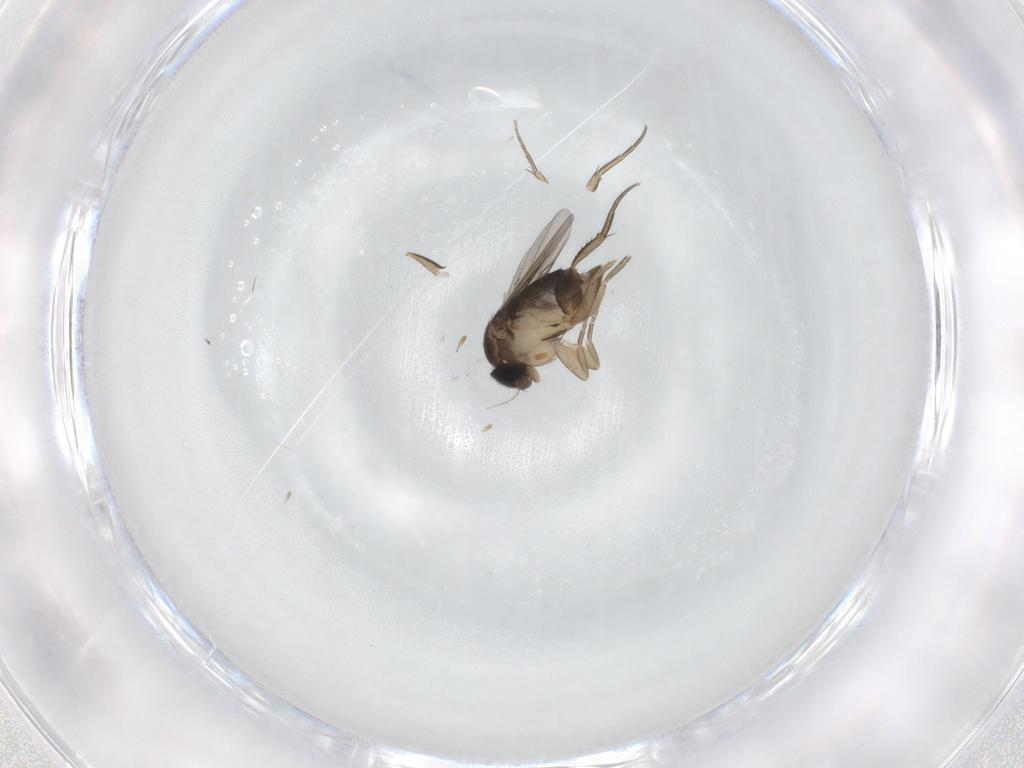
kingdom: Animalia
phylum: Arthropoda
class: Insecta
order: Diptera
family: Phoridae
